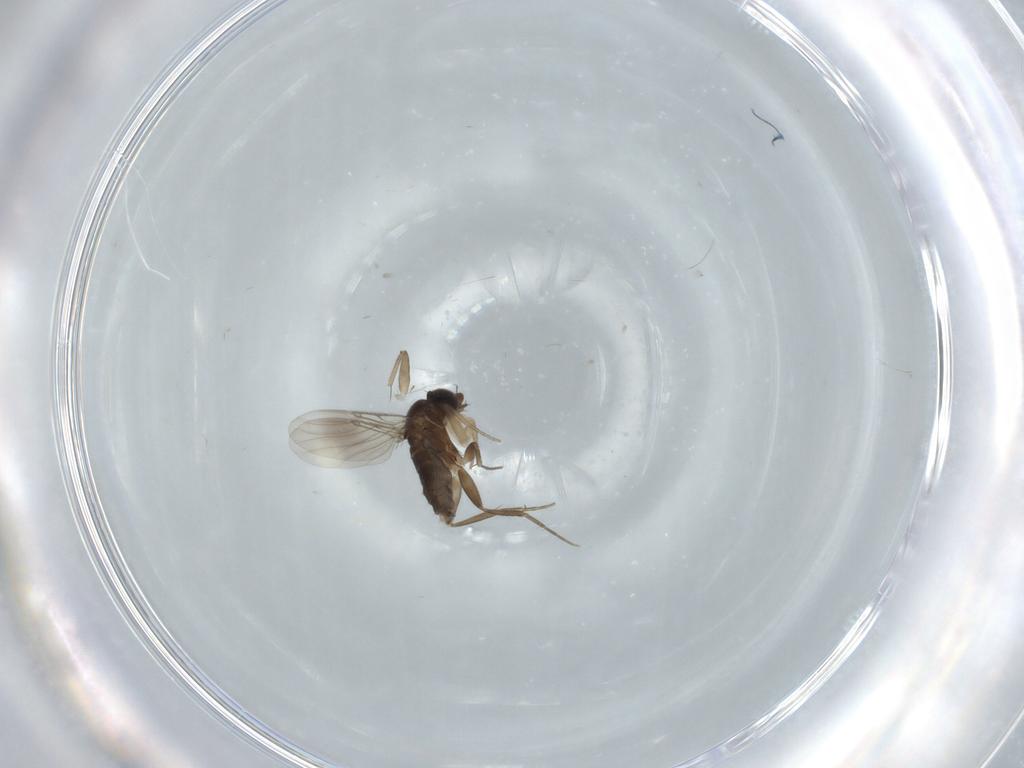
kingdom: Animalia
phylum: Arthropoda
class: Insecta
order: Diptera
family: Phoridae
